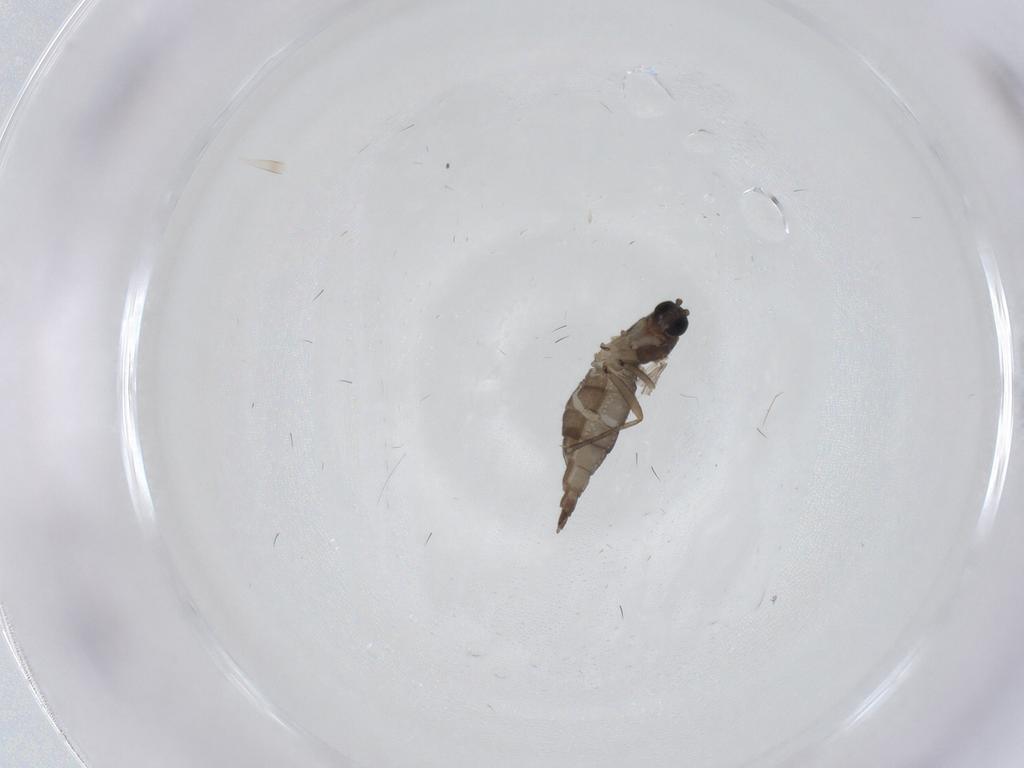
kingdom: Animalia
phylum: Arthropoda
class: Insecta
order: Diptera
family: Sciaridae
